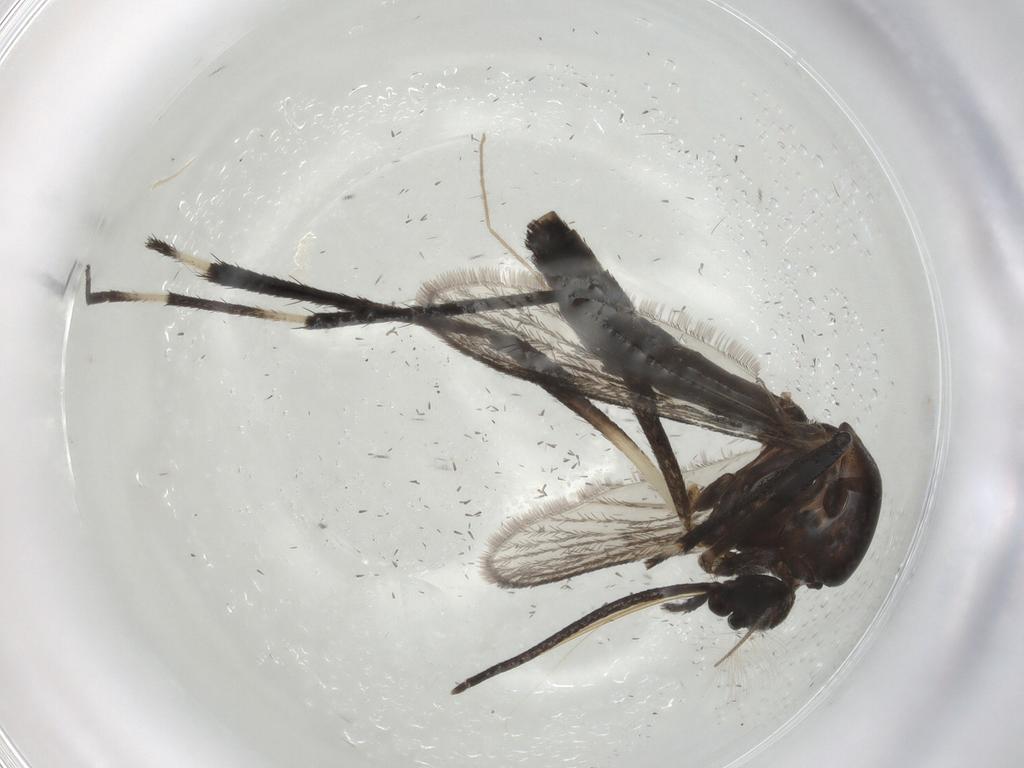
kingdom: Animalia
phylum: Arthropoda
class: Insecta
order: Diptera
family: Culicidae
